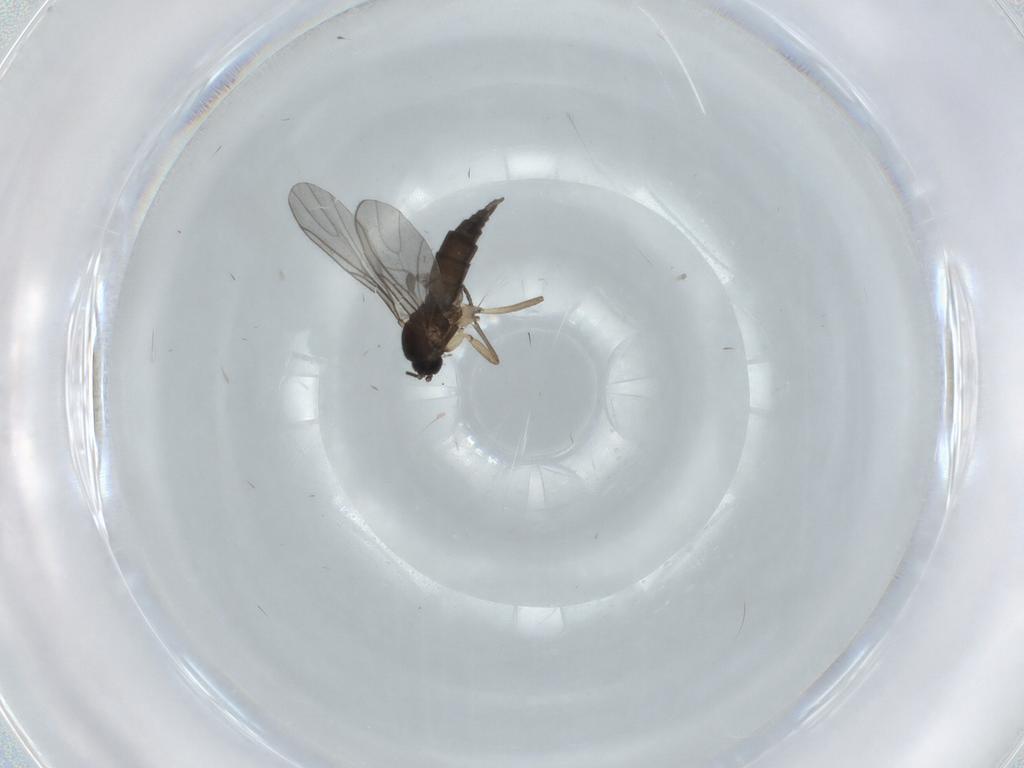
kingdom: Animalia
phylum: Arthropoda
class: Insecta
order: Diptera
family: Sciaridae
